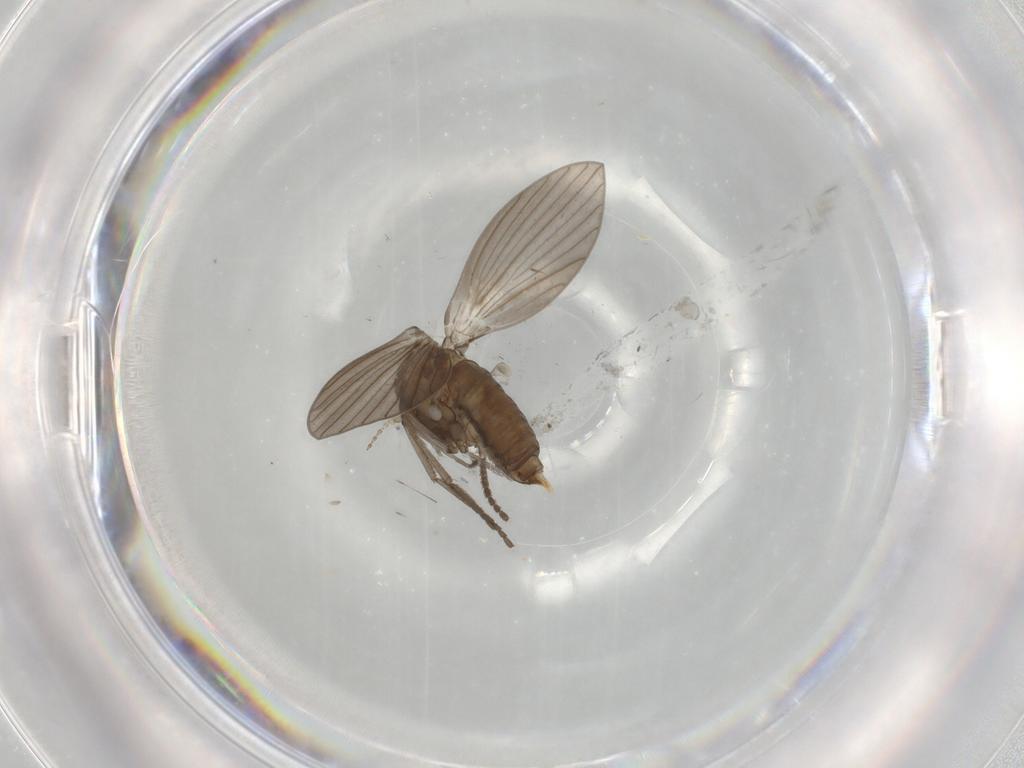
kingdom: Animalia
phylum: Arthropoda
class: Insecta
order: Diptera
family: Psychodidae
